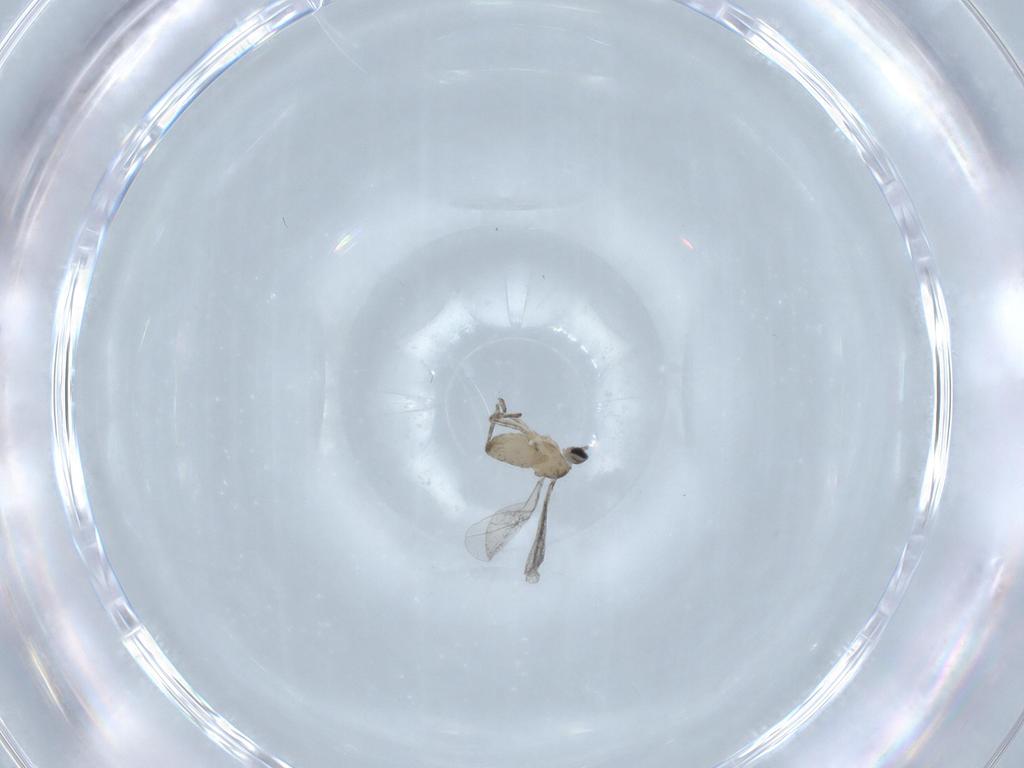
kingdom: Animalia
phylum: Arthropoda
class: Insecta
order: Diptera
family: Cecidomyiidae
